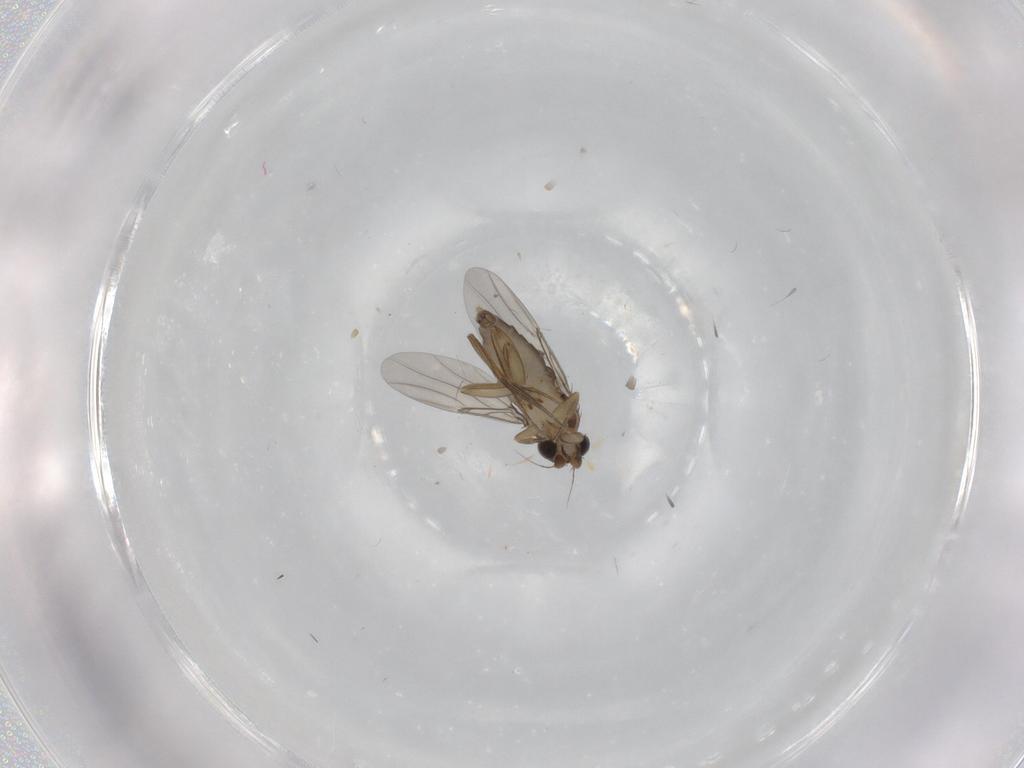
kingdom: Animalia
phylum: Arthropoda
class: Insecta
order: Diptera
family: Phoridae
